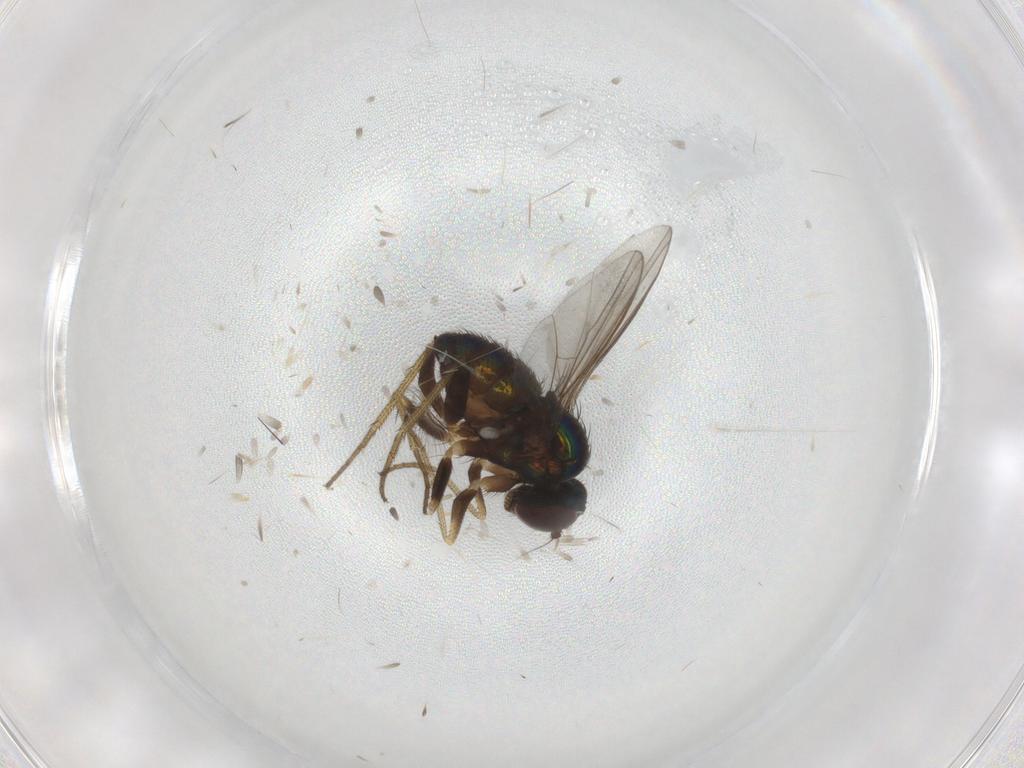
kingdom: Animalia
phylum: Arthropoda
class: Insecta
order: Diptera
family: Dolichopodidae
